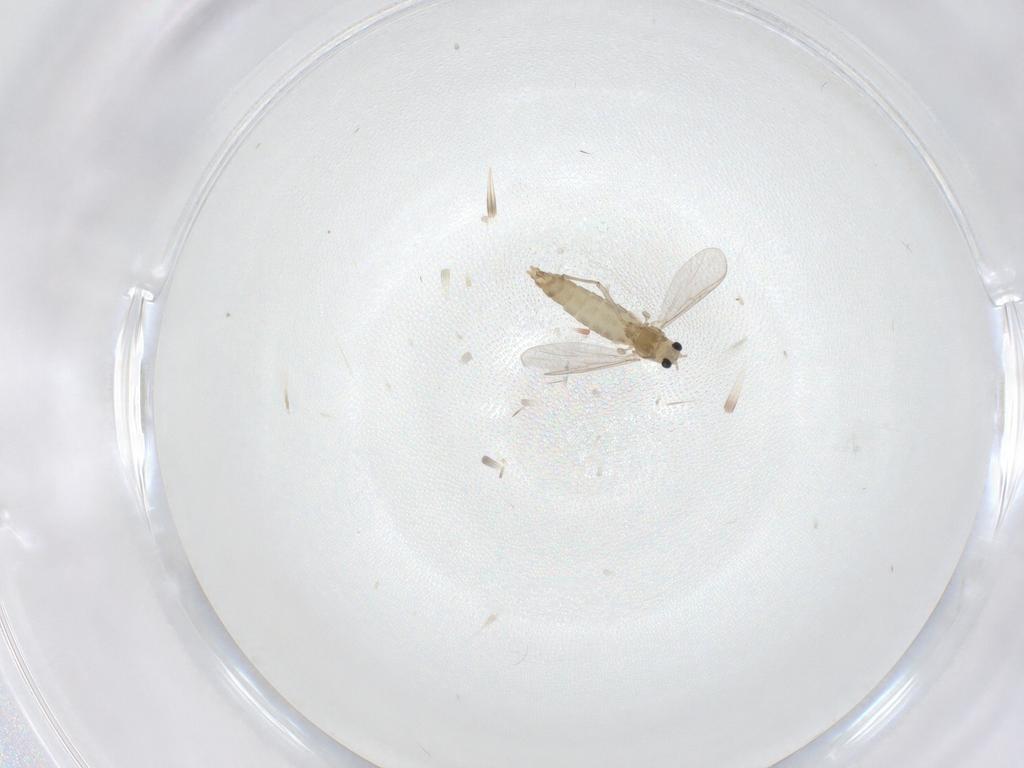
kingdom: Animalia
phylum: Arthropoda
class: Insecta
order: Diptera
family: Chironomidae
